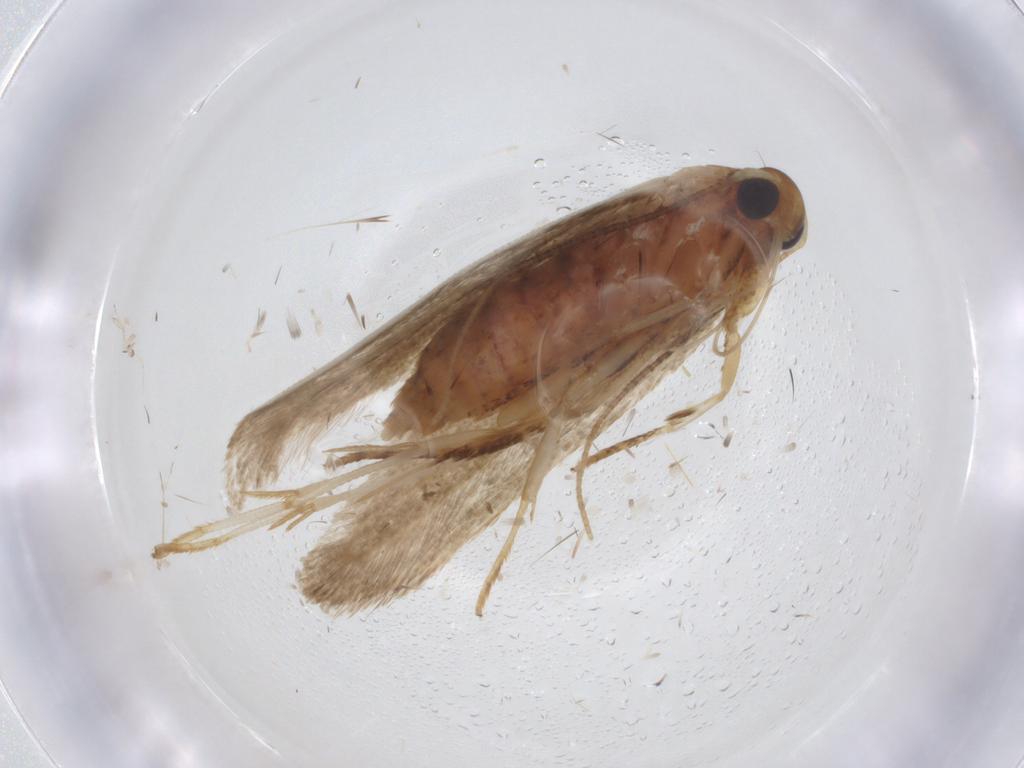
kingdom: Animalia
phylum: Arthropoda
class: Insecta
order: Lepidoptera
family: Blastobasidae
